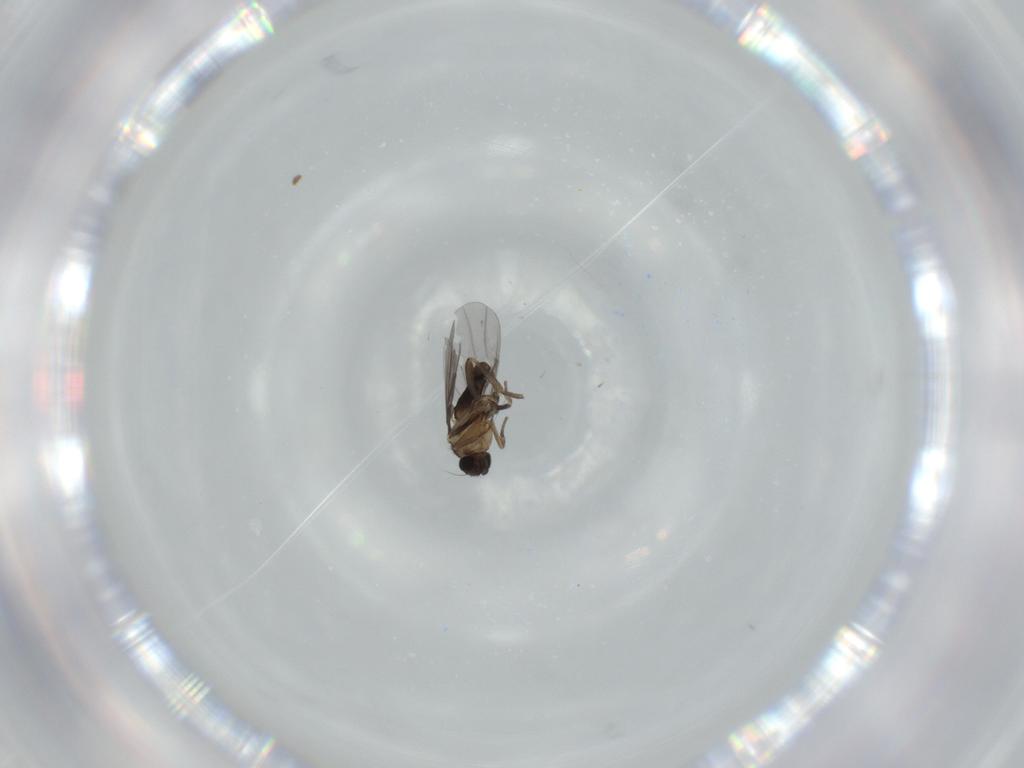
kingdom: Animalia
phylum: Arthropoda
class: Insecta
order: Diptera
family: Phoridae
